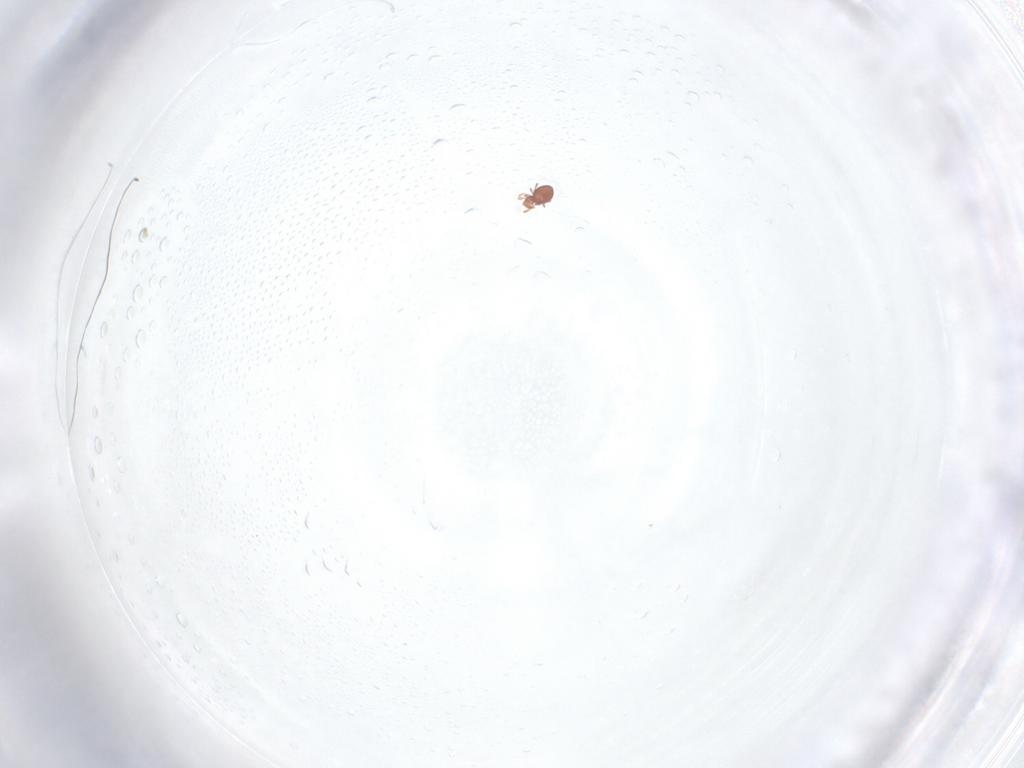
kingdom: Animalia
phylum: Arthropoda
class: Arachnida
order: Sarcoptiformes
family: Oppiidae
